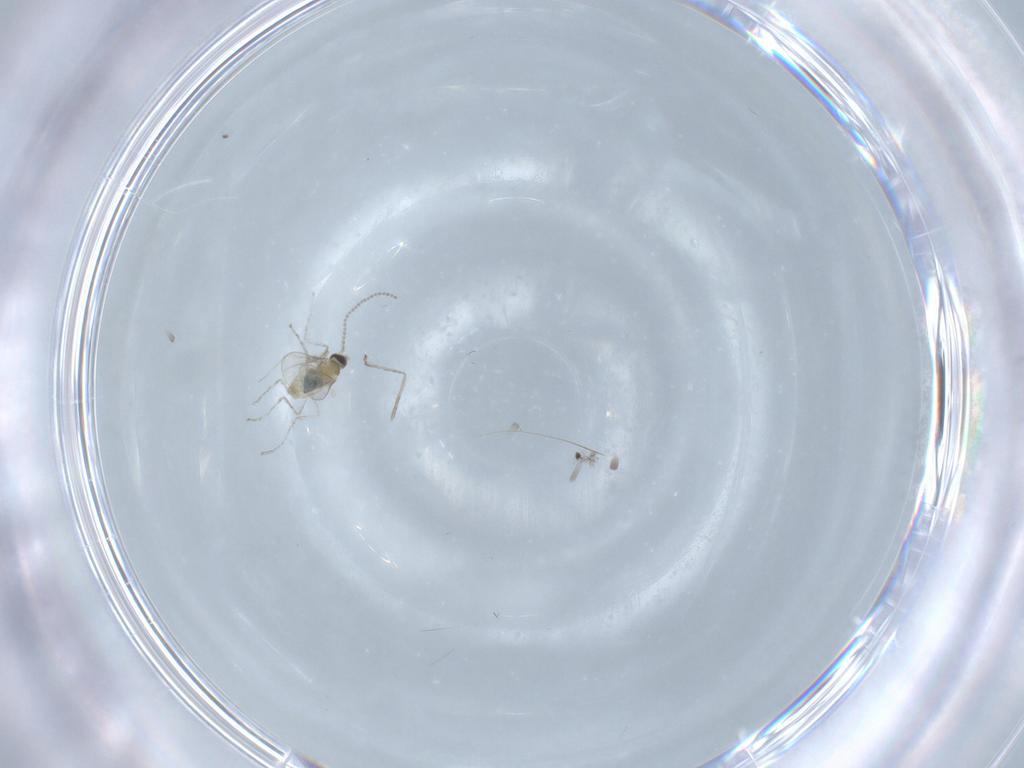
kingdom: Animalia
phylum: Arthropoda
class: Insecta
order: Diptera
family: Cecidomyiidae
